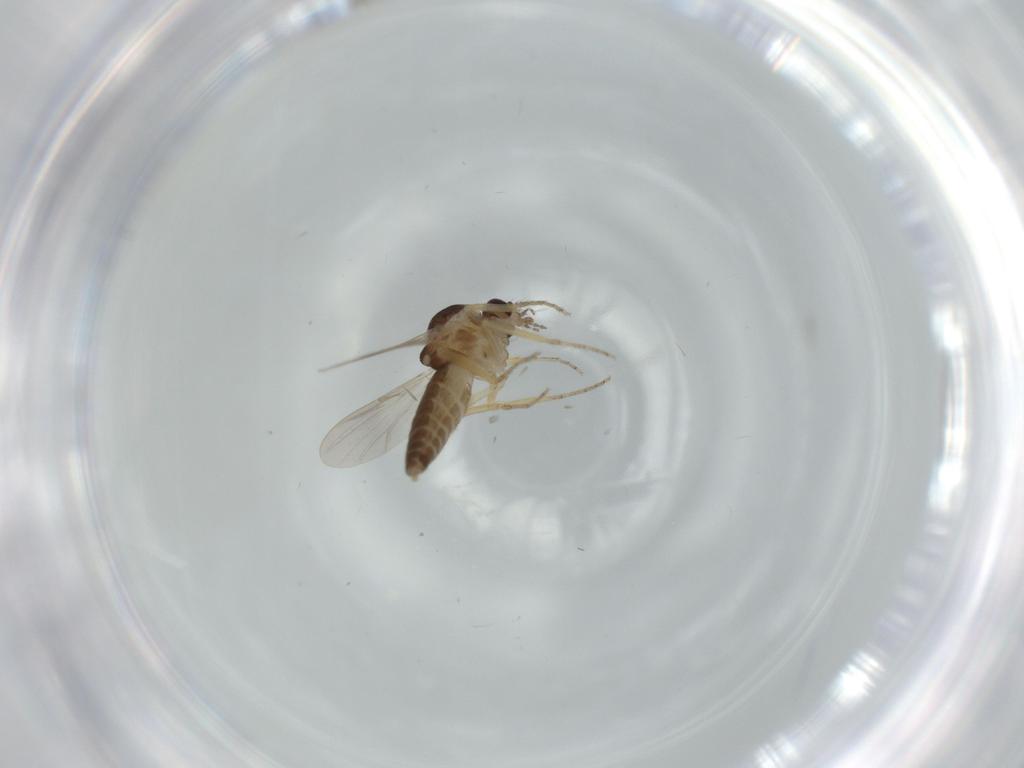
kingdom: Animalia
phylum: Arthropoda
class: Insecta
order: Diptera
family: Ceratopogonidae
